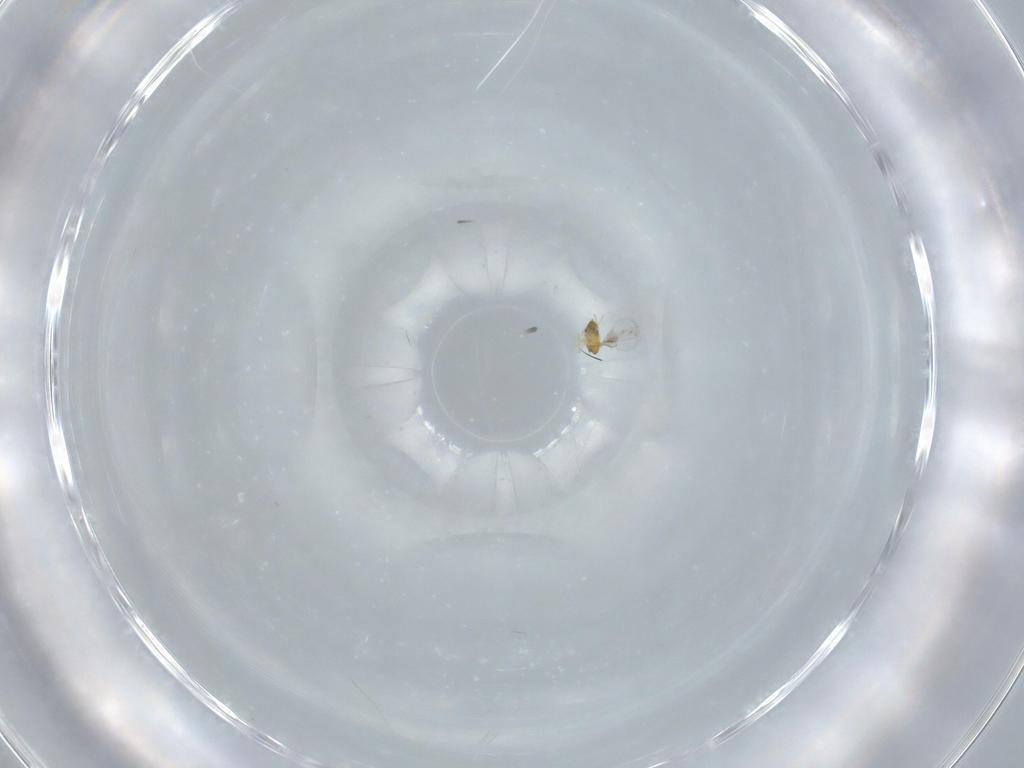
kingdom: Animalia
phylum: Arthropoda
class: Insecta
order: Hymenoptera
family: Trichogrammatidae
